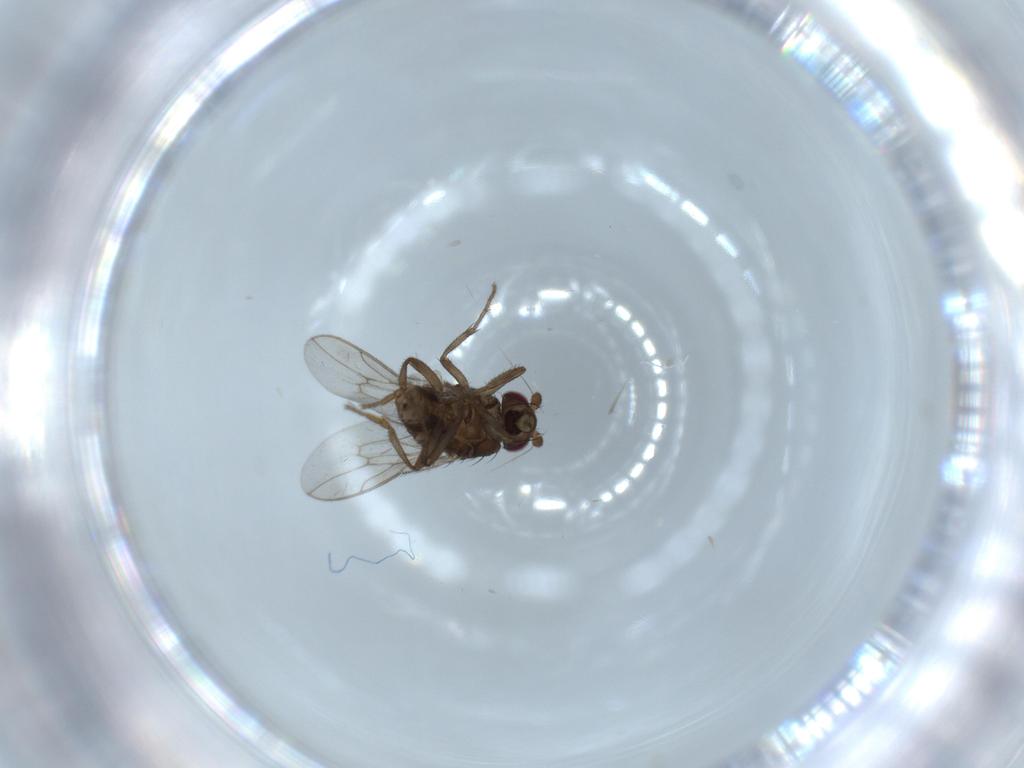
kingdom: Animalia
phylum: Arthropoda
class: Insecta
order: Diptera
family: Sphaeroceridae
